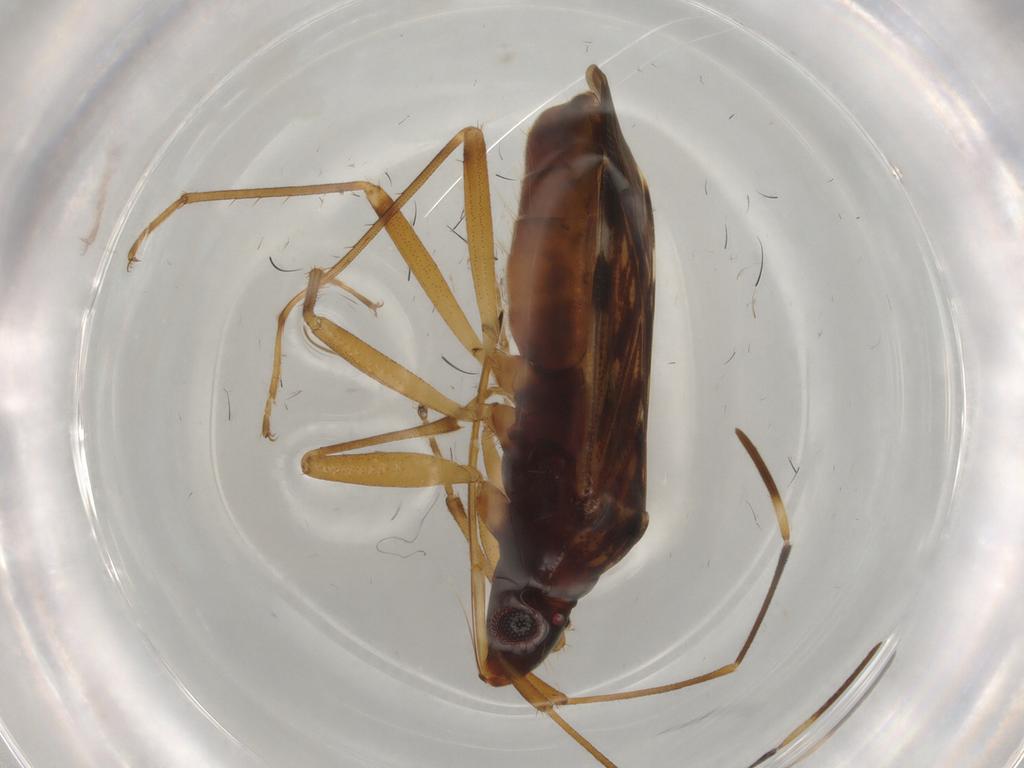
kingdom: Animalia
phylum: Arthropoda
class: Insecta
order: Hemiptera
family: Rhyparochromidae
